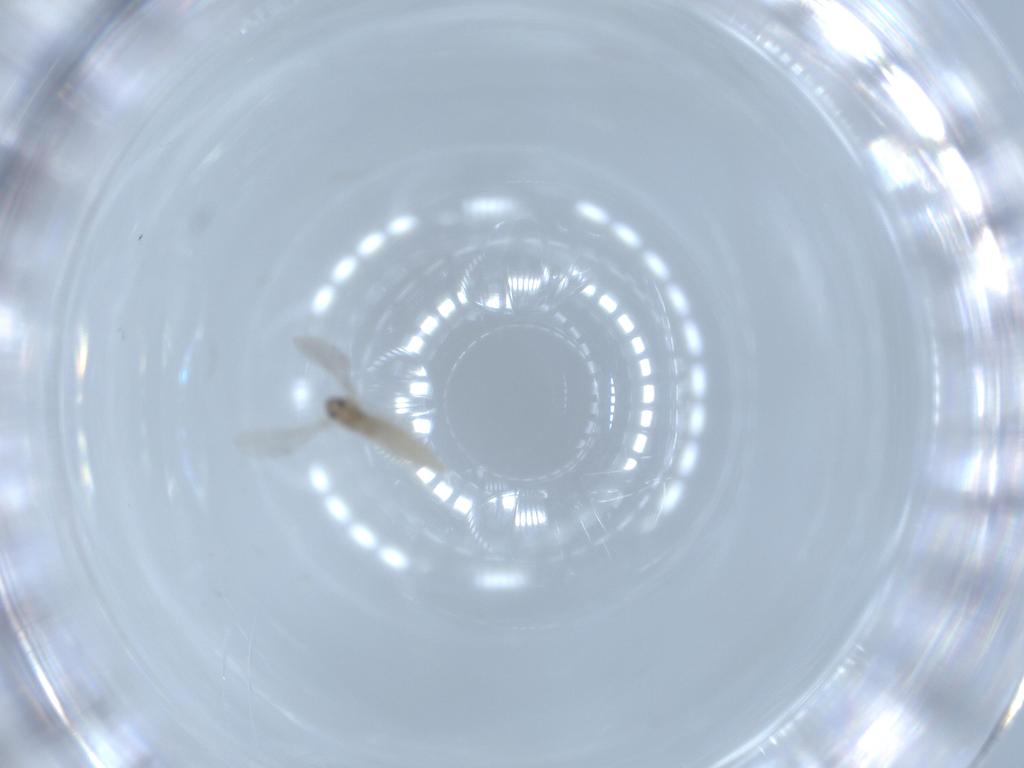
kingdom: Animalia
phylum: Arthropoda
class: Insecta
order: Diptera
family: Cecidomyiidae
